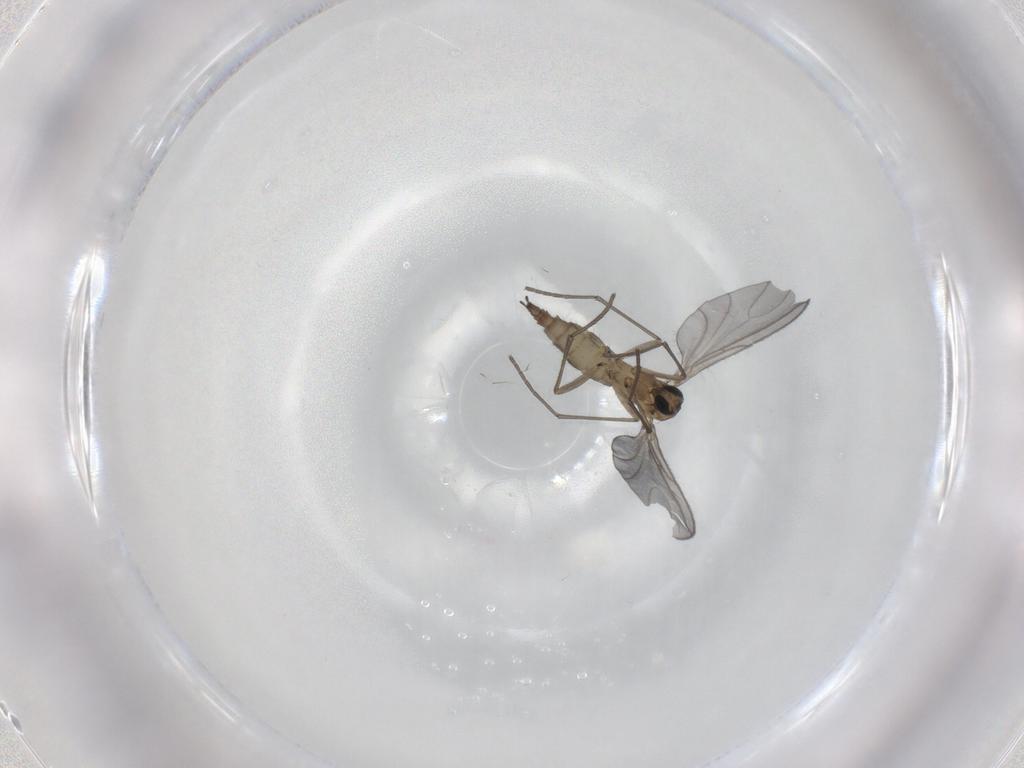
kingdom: Animalia
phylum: Arthropoda
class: Insecta
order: Diptera
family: Sciaridae
